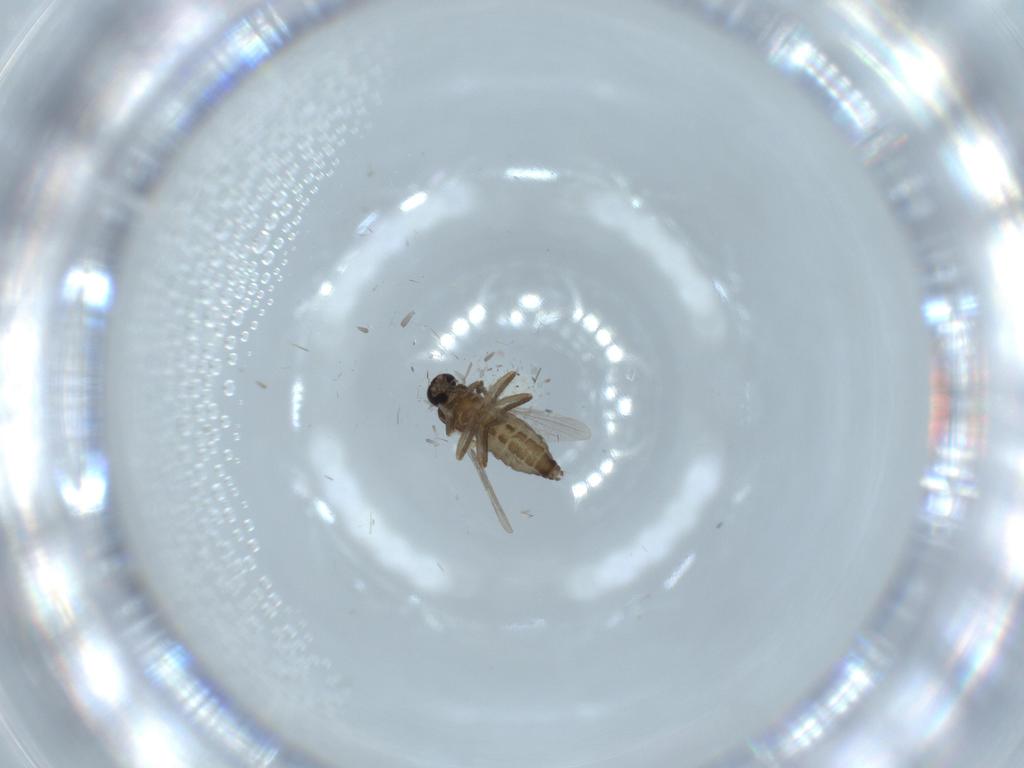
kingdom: Animalia
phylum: Arthropoda
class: Insecta
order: Diptera
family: Ceratopogonidae
